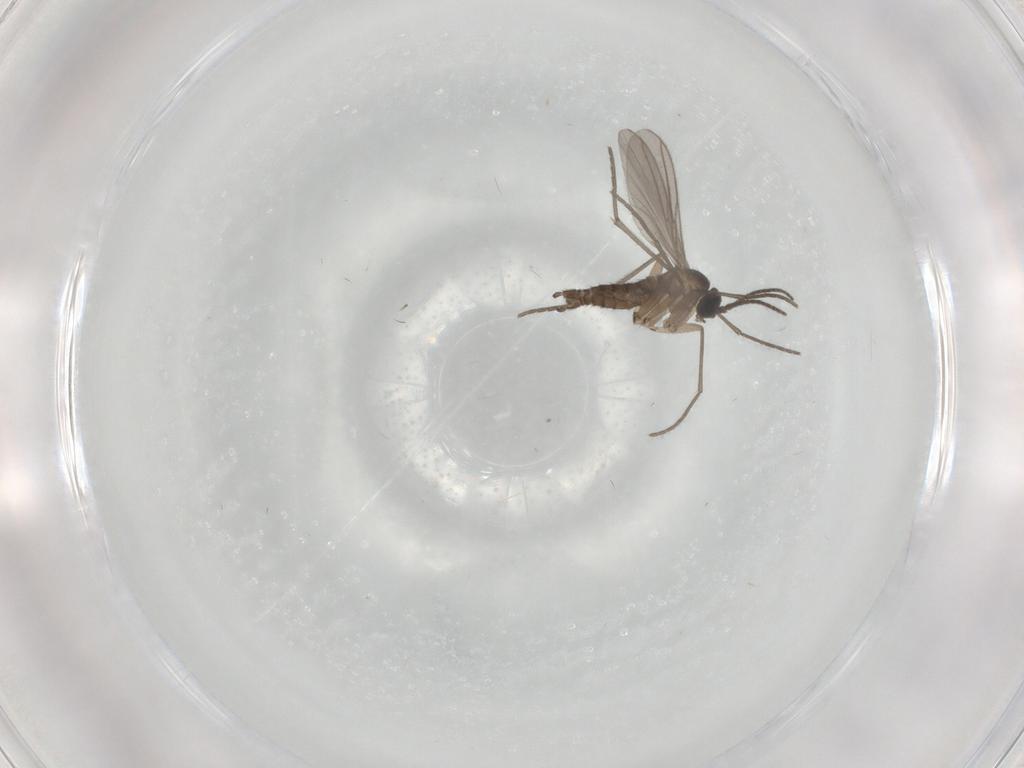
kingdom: Animalia
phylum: Arthropoda
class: Insecta
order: Diptera
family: Sciaridae
